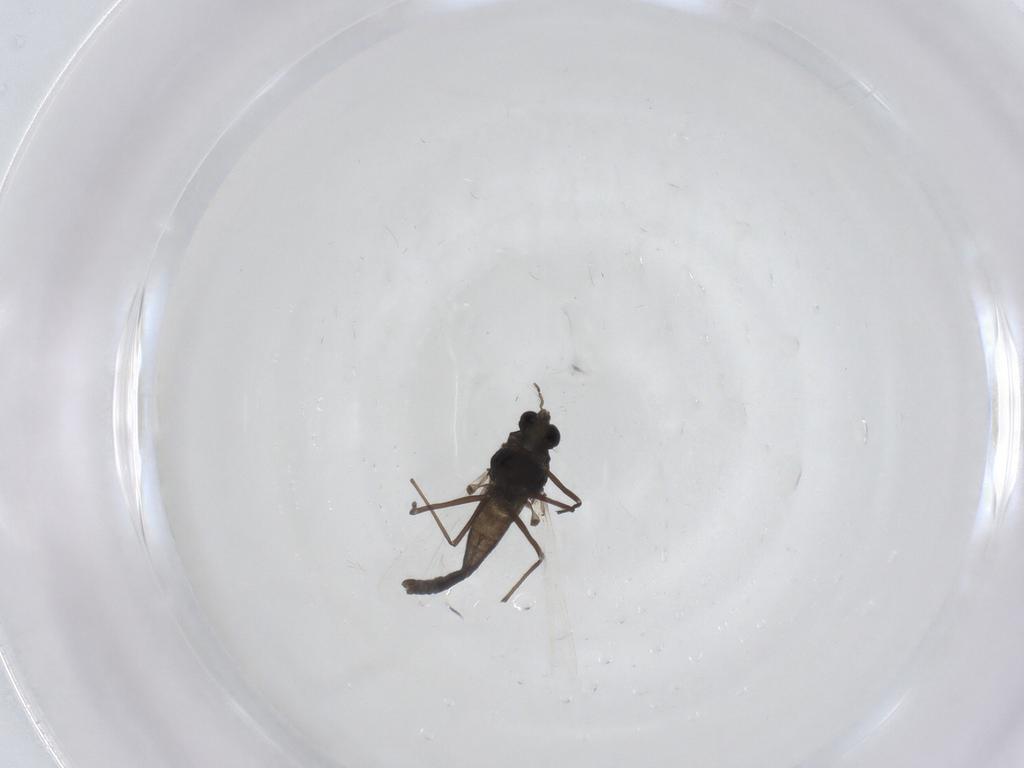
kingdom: Animalia
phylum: Arthropoda
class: Insecta
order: Diptera
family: Chironomidae
